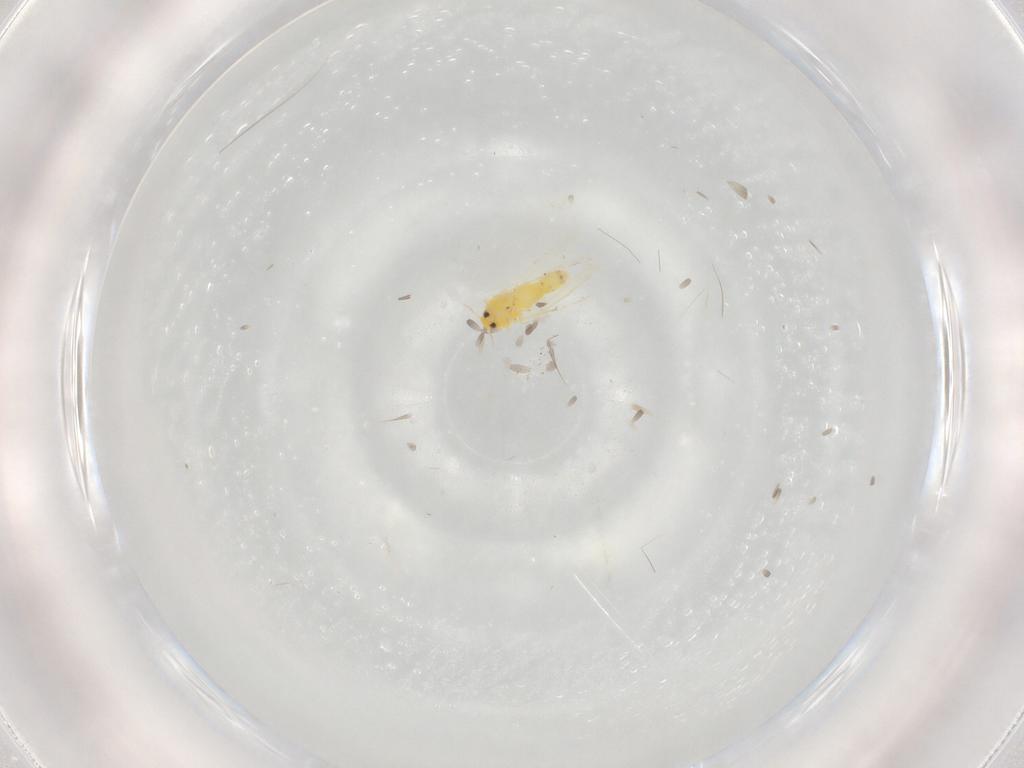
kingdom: Animalia
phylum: Arthropoda
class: Insecta
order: Hemiptera
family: Aleyrodidae
